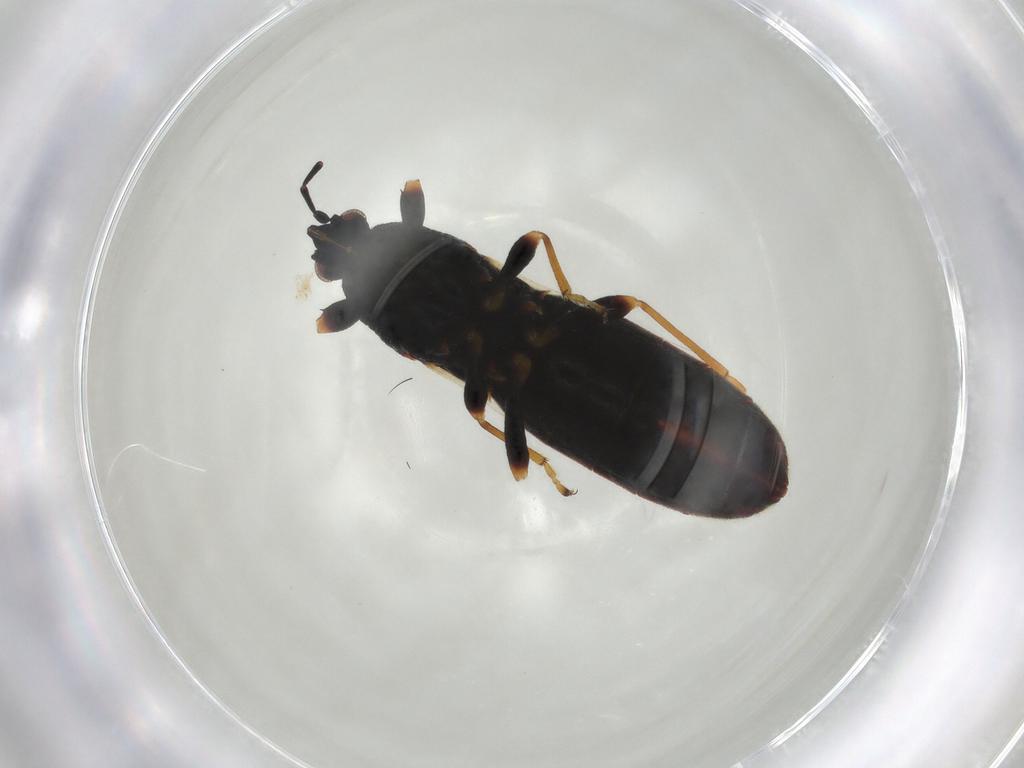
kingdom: Animalia
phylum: Arthropoda
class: Insecta
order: Hemiptera
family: Blissidae
